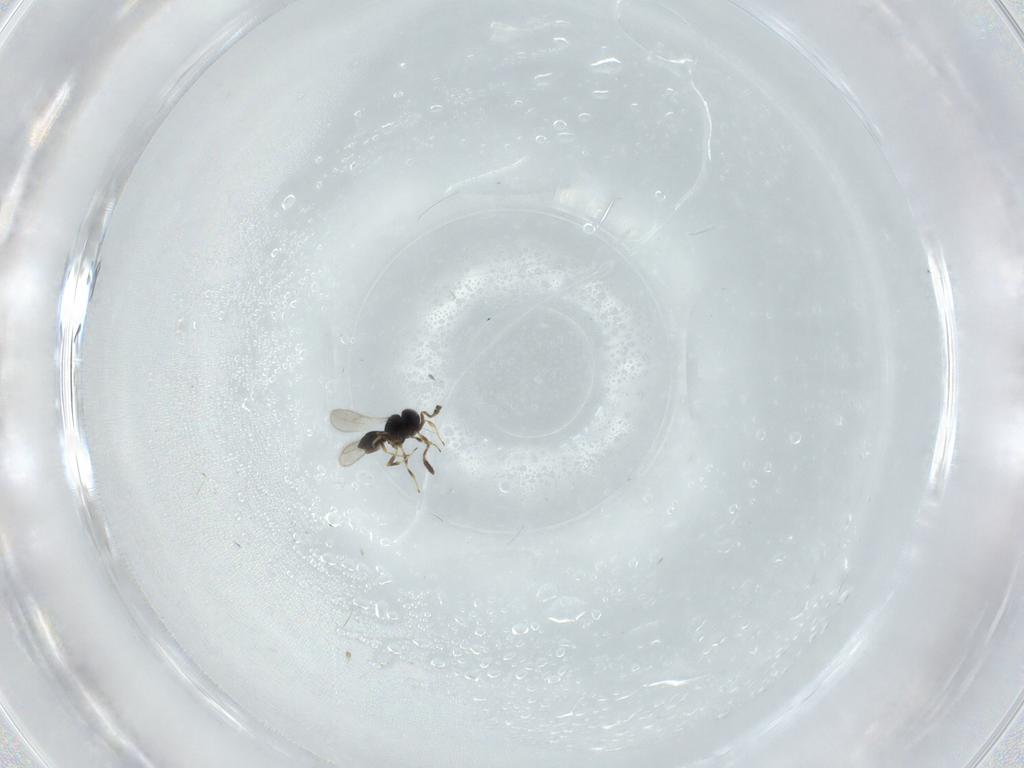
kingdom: Animalia
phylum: Arthropoda
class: Insecta
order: Hymenoptera
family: Scelionidae
